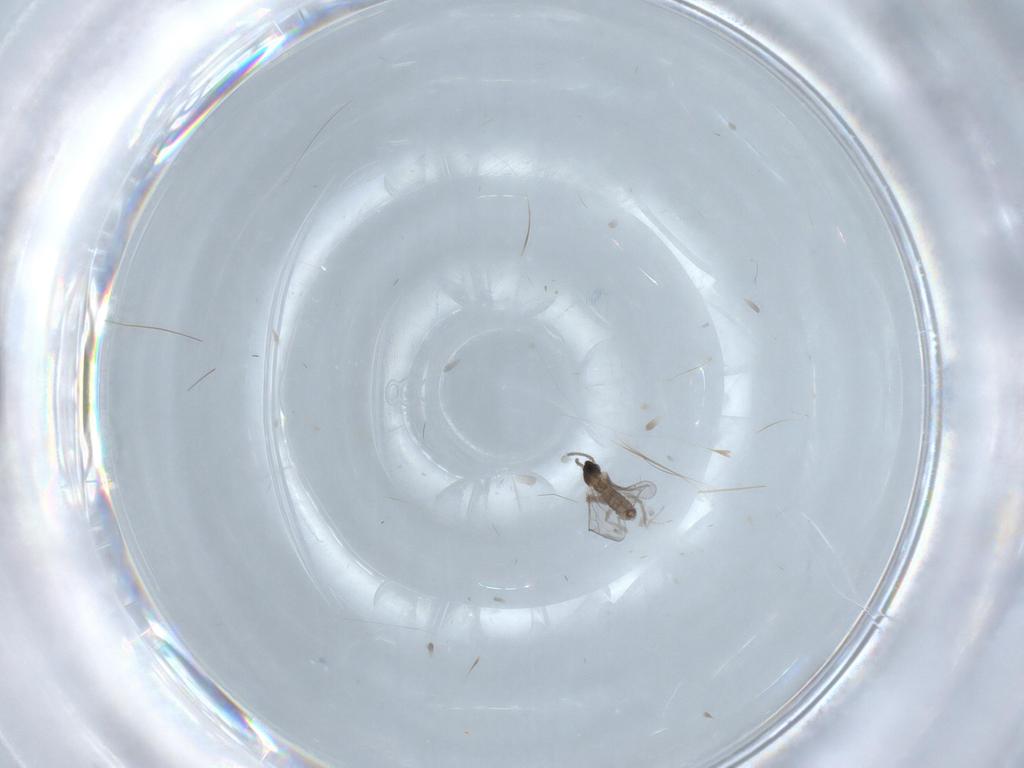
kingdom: Animalia
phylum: Arthropoda
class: Insecta
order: Diptera
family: Cecidomyiidae
